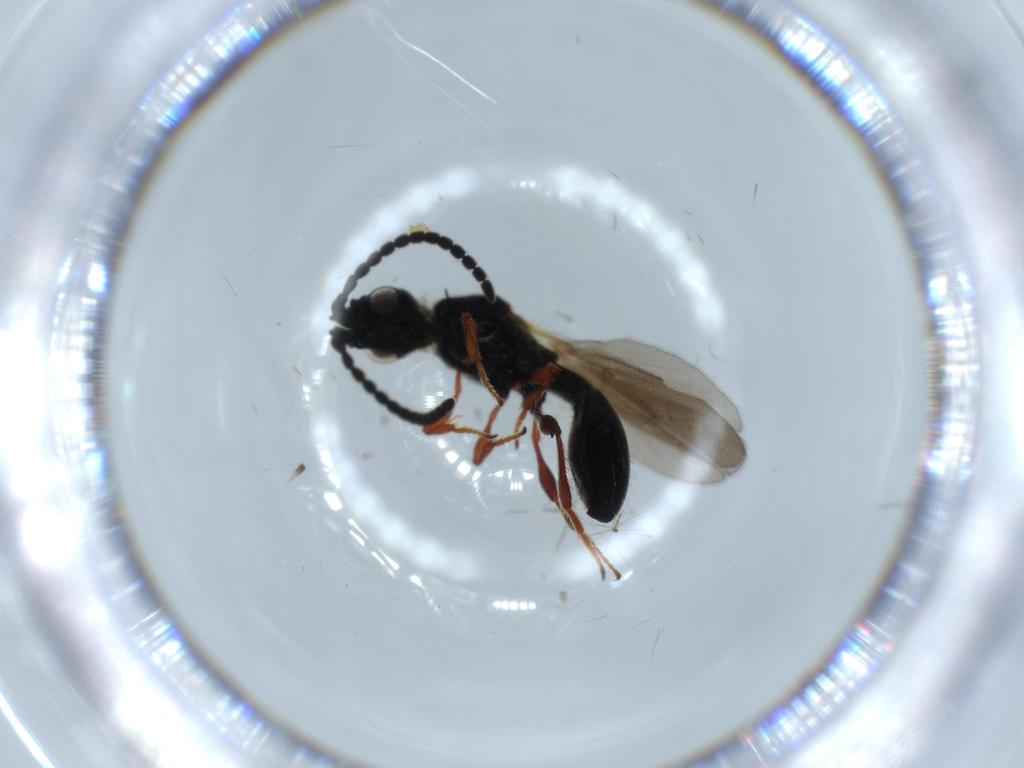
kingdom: Animalia
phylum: Arthropoda
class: Insecta
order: Hymenoptera
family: Diapriidae
